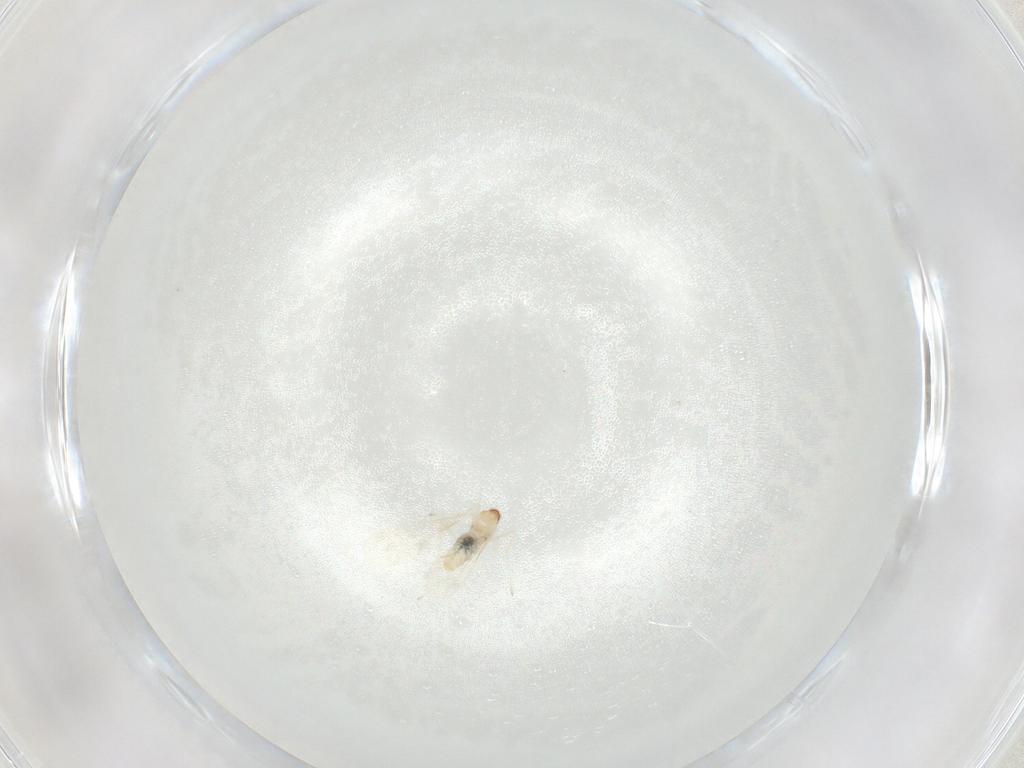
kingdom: Animalia
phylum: Arthropoda
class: Insecta
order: Diptera
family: Cecidomyiidae
